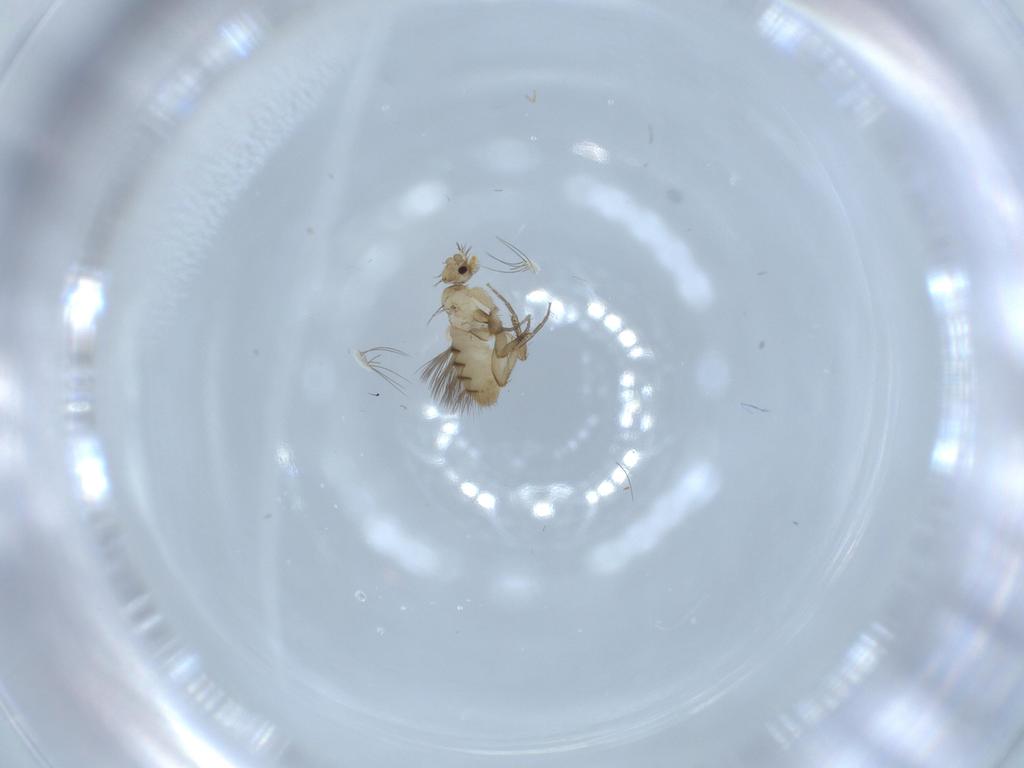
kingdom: Animalia
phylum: Arthropoda
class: Insecta
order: Diptera
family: Phoridae
